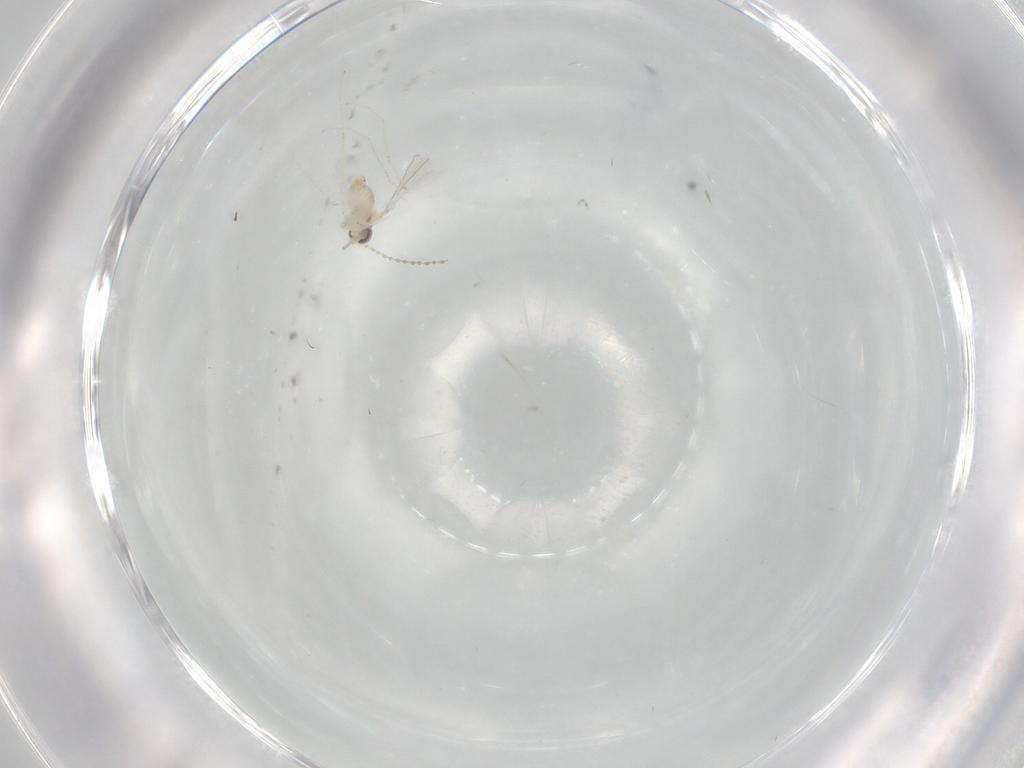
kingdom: Animalia
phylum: Arthropoda
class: Insecta
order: Diptera
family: Cecidomyiidae
